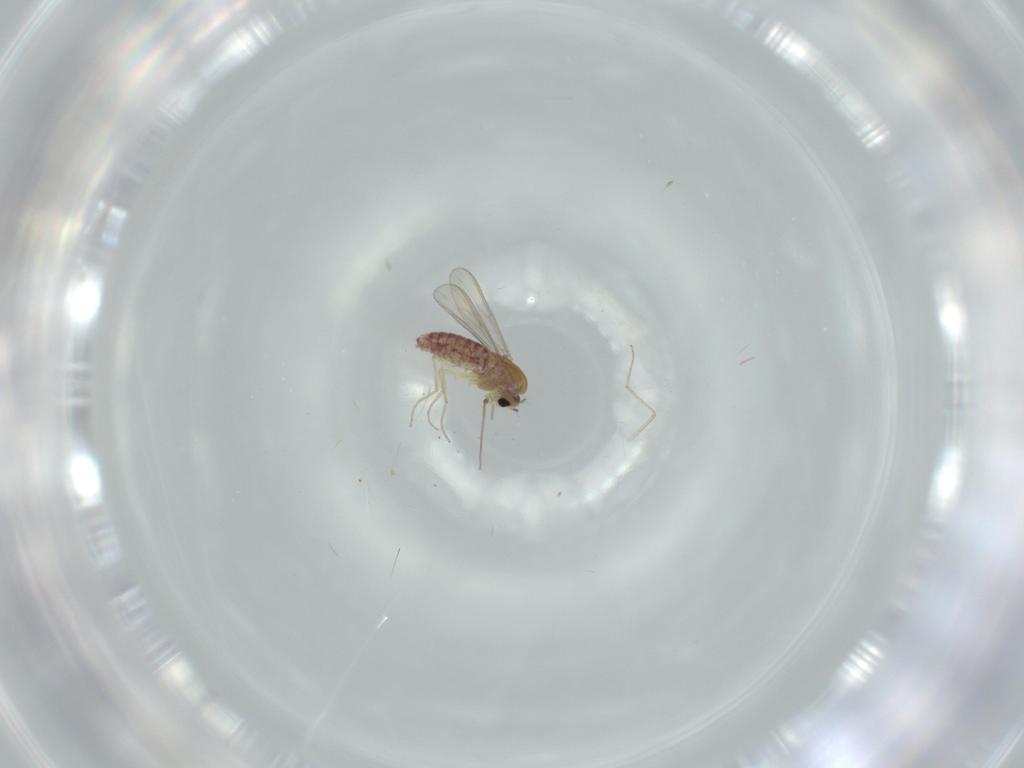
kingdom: Animalia
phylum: Arthropoda
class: Insecta
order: Diptera
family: Chironomidae
